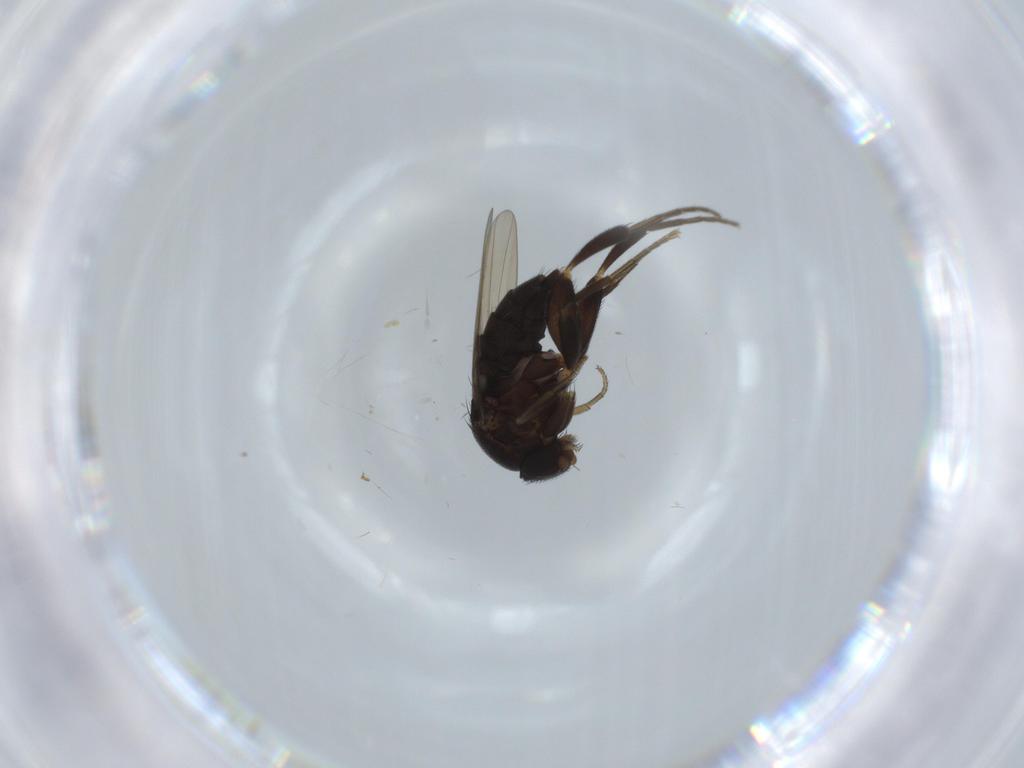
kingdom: Animalia
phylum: Arthropoda
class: Insecta
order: Diptera
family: Phoridae
